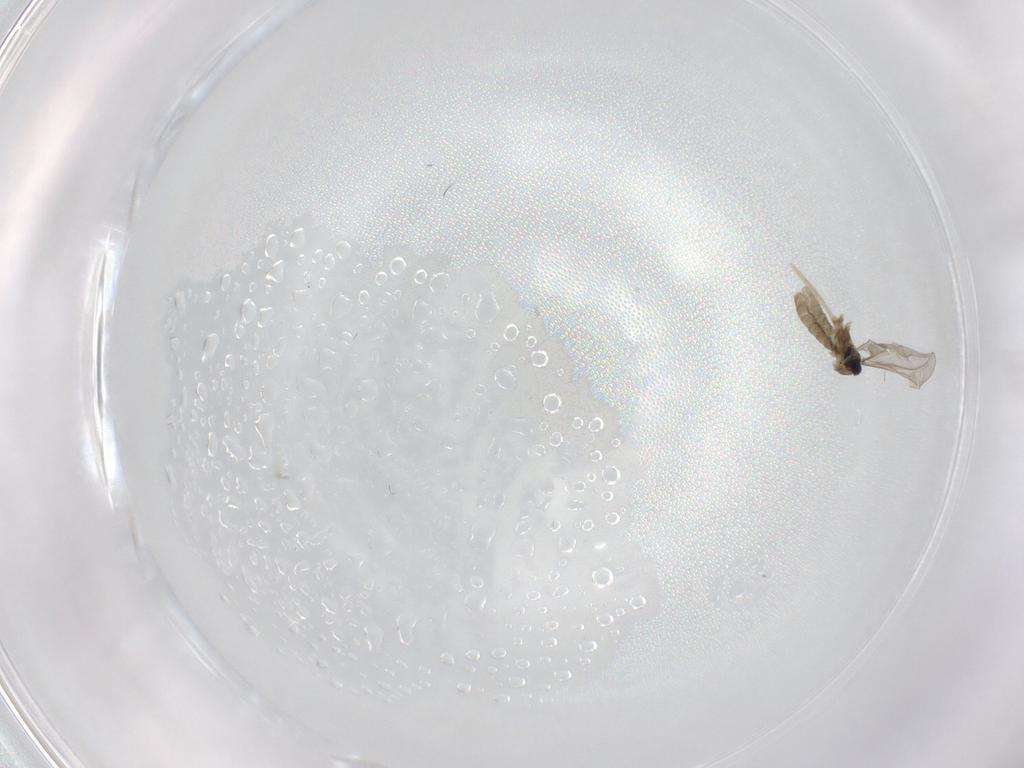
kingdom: Animalia
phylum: Arthropoda
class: Insecta
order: Diptera
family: Cecidomyiidae
